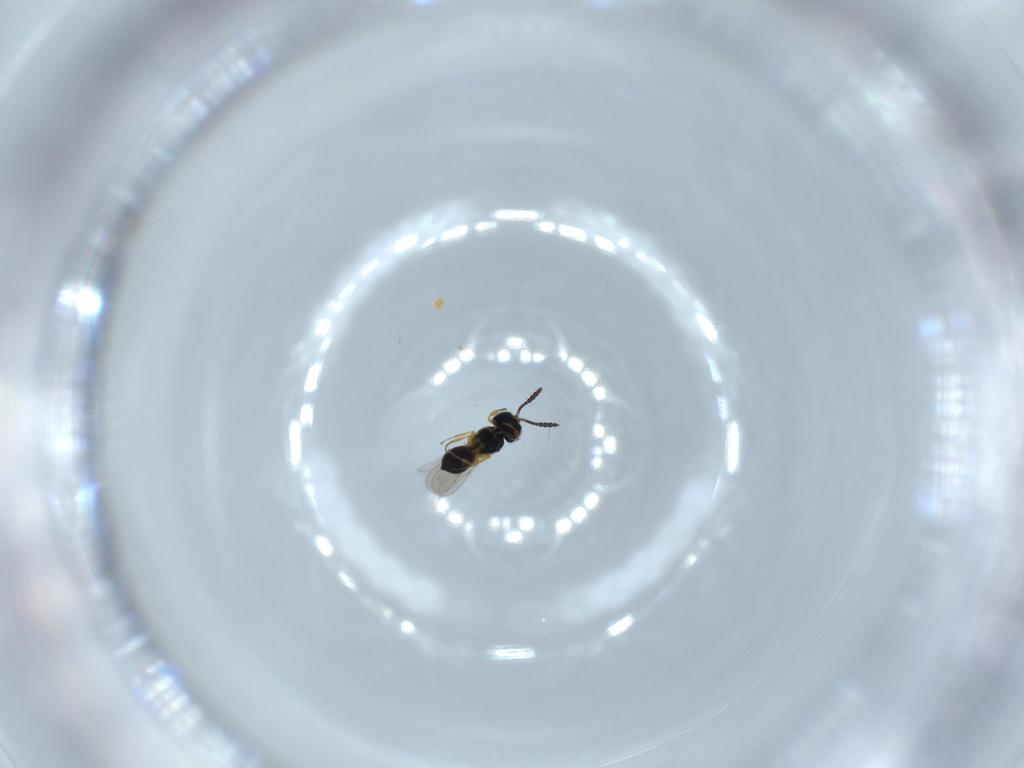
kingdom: Animalia
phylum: Arthropoda
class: Insecta
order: Hymenoptera
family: Scelionidae
